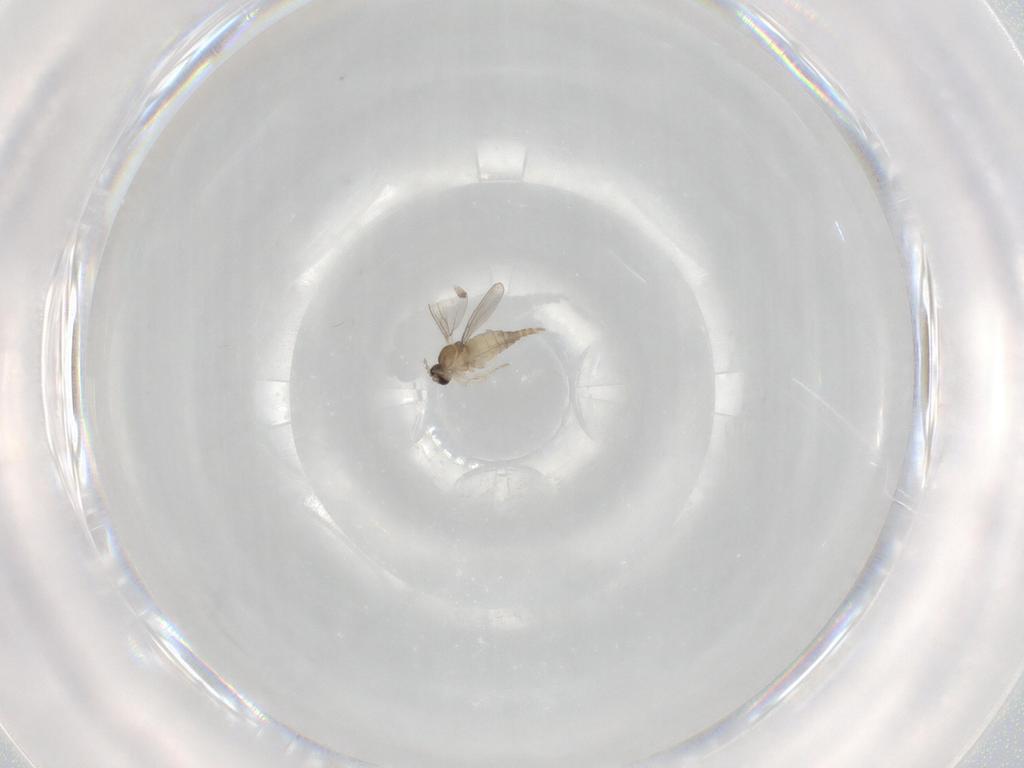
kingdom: Animalia
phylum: Arthropoda
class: Insecta
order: Diptera
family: Cecidomyiidae
